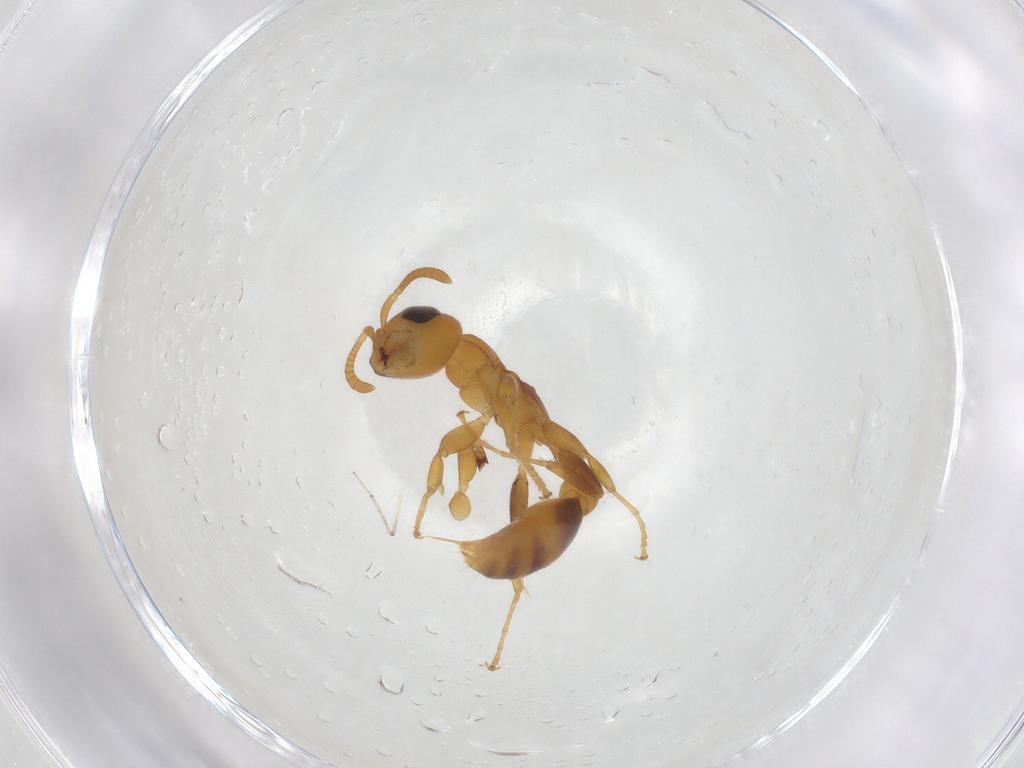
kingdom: Animalia
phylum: Arthropoda
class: Insecta
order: Hymenoptera
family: Formicidae
